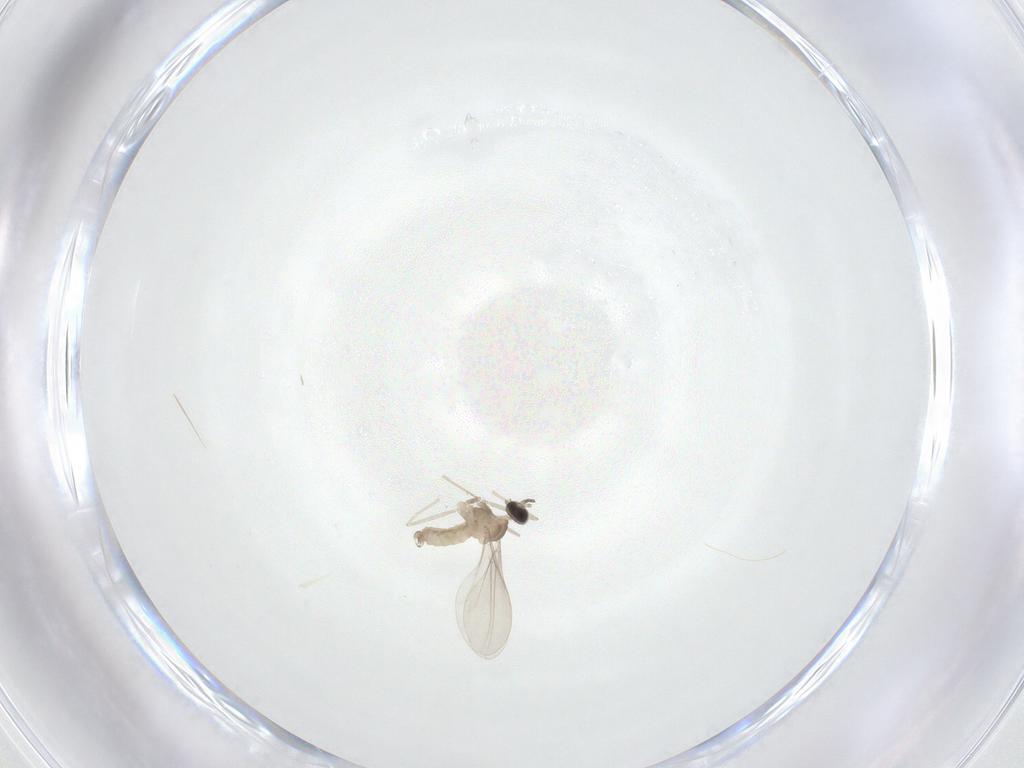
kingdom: Animalia
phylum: Arthropoda
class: Insecta
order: Diptera
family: Cecidomyiidae
